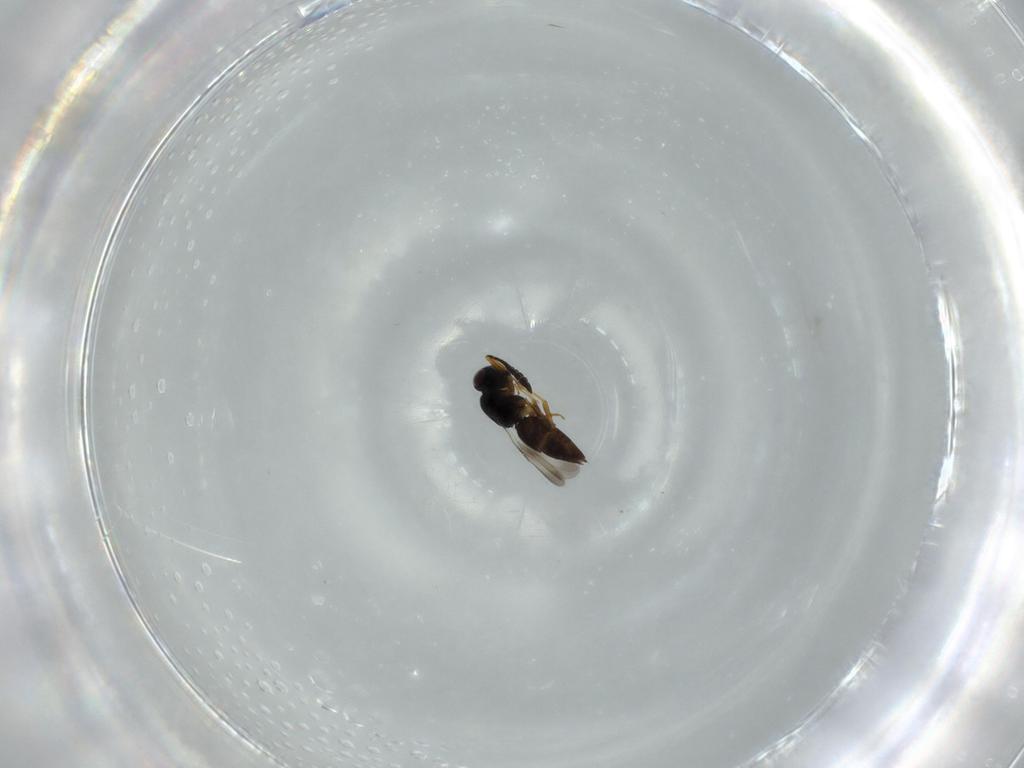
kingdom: Animalia
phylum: Arthropoda
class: Insecta
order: Hymenoptera
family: Ceraphronidae
